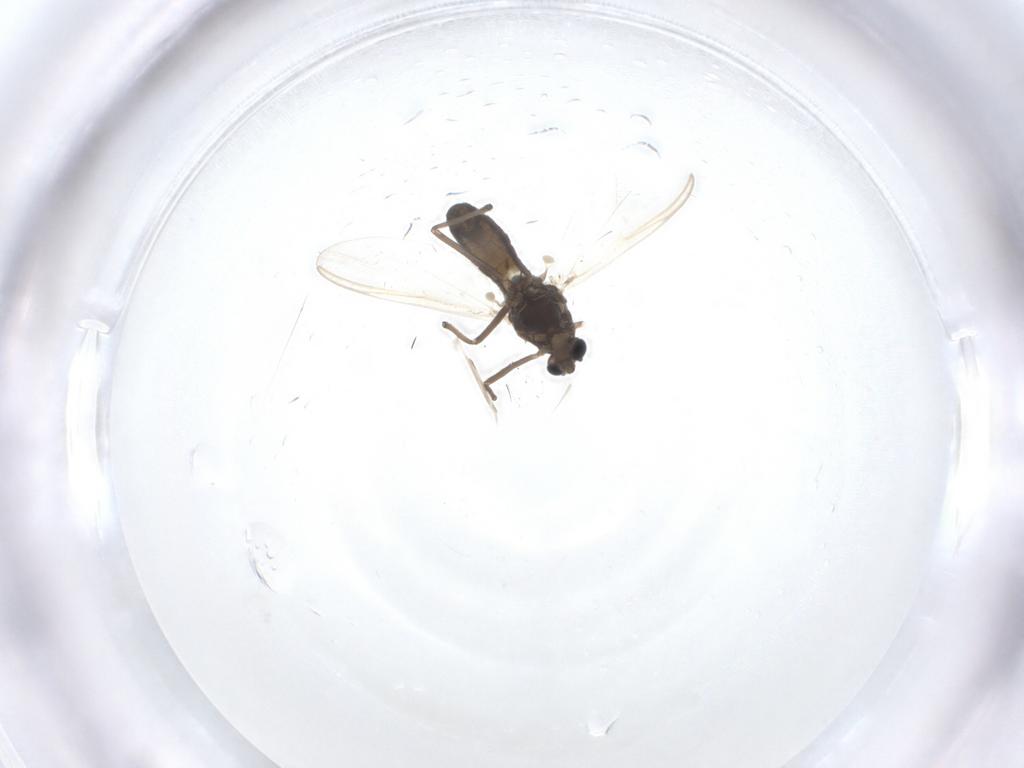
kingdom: Animalia
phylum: Arthropoda
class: Insecta
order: Diptera
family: Chironomidae
